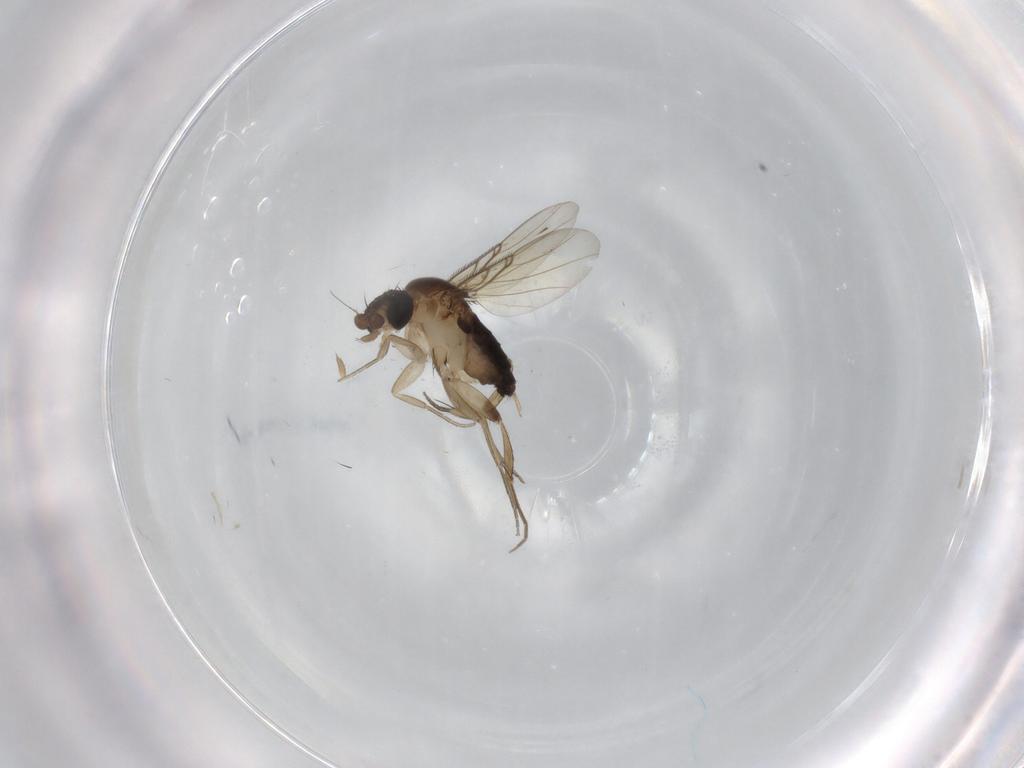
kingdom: Animalia
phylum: Arthropoda
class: Insecta
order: Diptera
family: Phoridae
